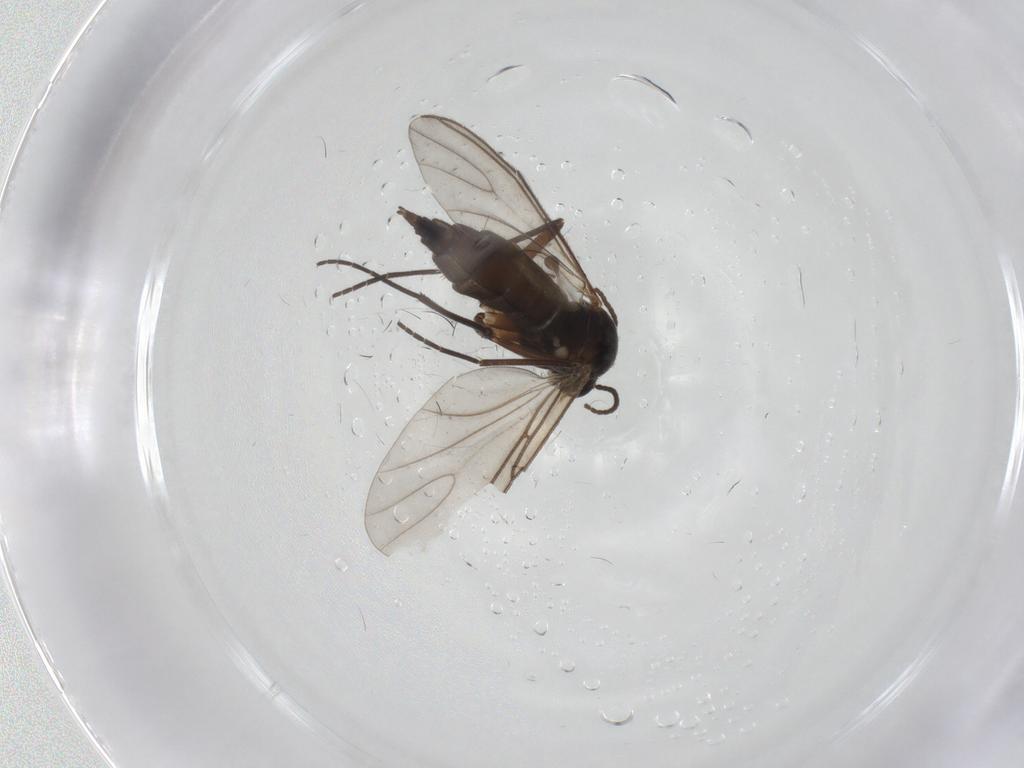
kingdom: Animalia
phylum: Arthropoda
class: Insecta
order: Diptera
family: Sciaridae
